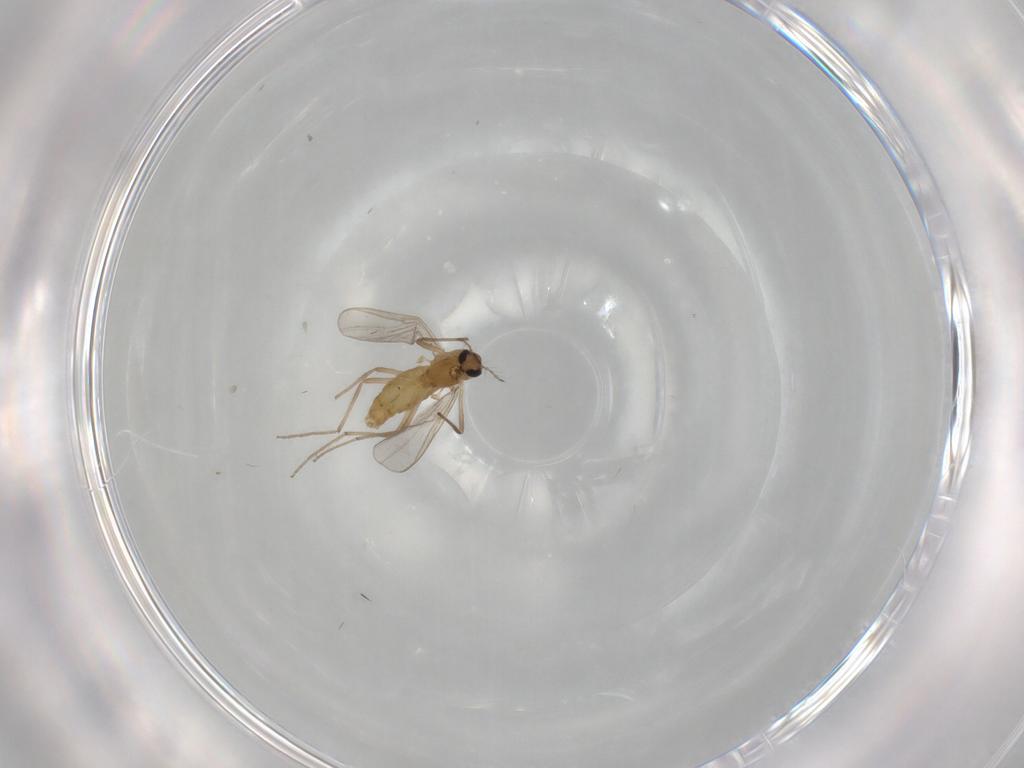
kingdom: Animalia
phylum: Arthropoda
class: Insecta
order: Diptera
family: Chironomidae
